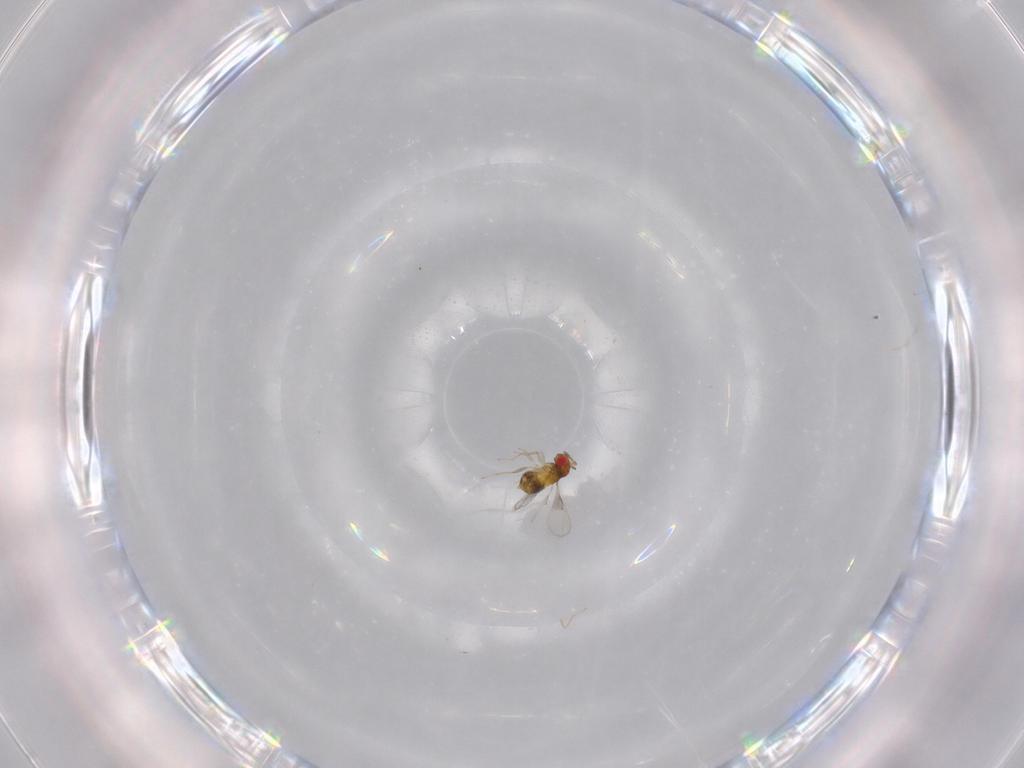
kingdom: Animalia
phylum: Arthropoda
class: Insecta
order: Hymenoptera
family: Trichogrammatidae
